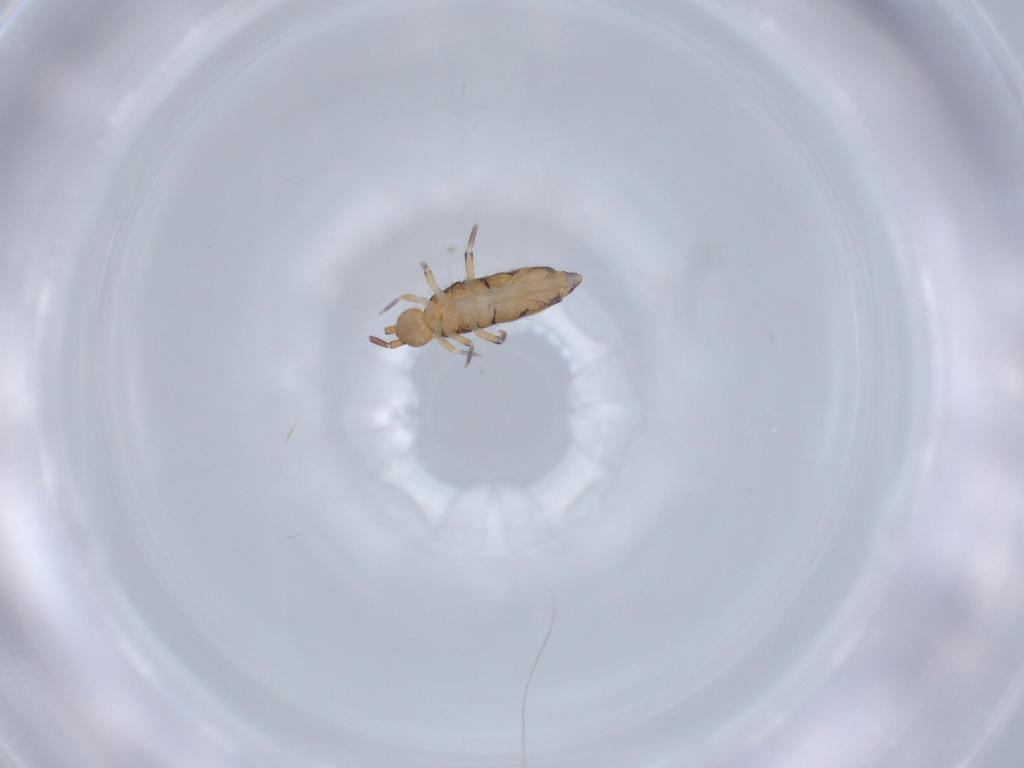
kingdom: Animalia
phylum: Arthropoda
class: Collembola
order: Entomobryomorpha
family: Entomobryidae
